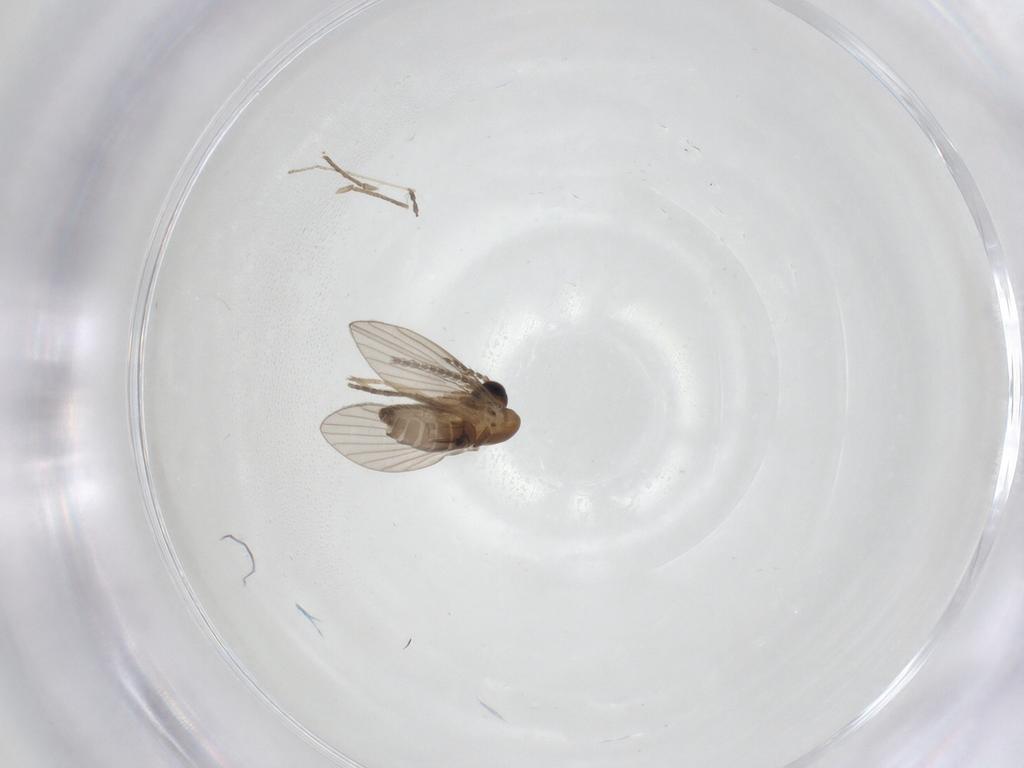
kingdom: Animalia
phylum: Arthropoda
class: Insecta
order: Diptera
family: Cecidomyiidae
